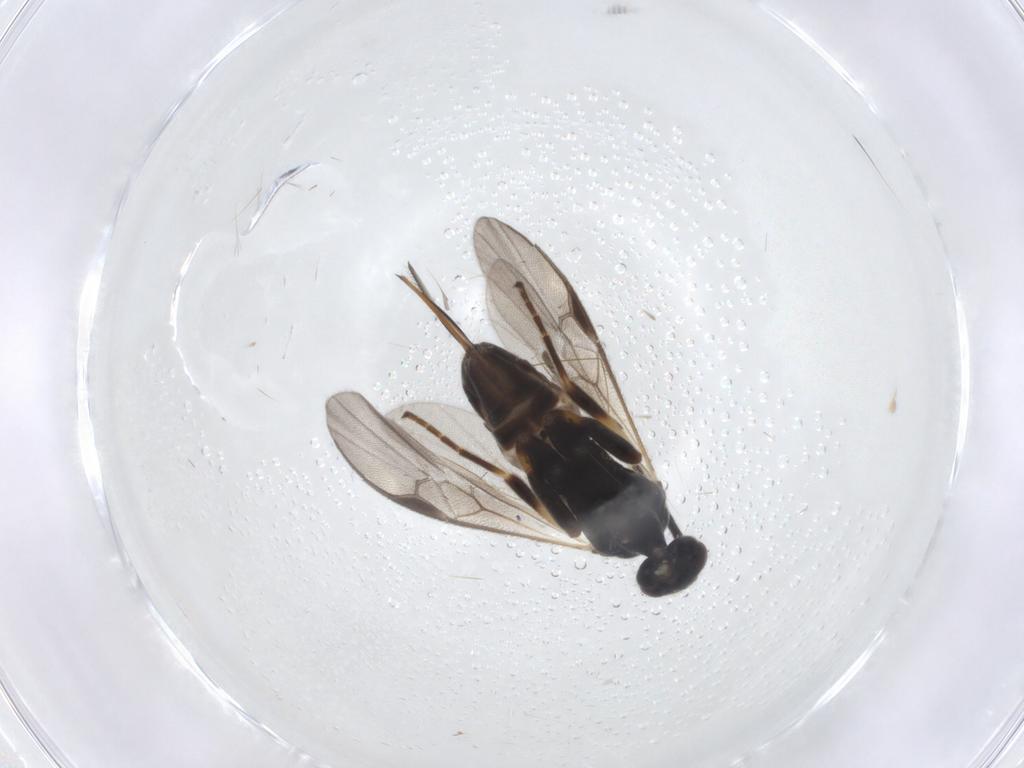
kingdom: Animalia
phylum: Arthropoda
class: Insecta
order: Hymenoptera
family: Braconidae
